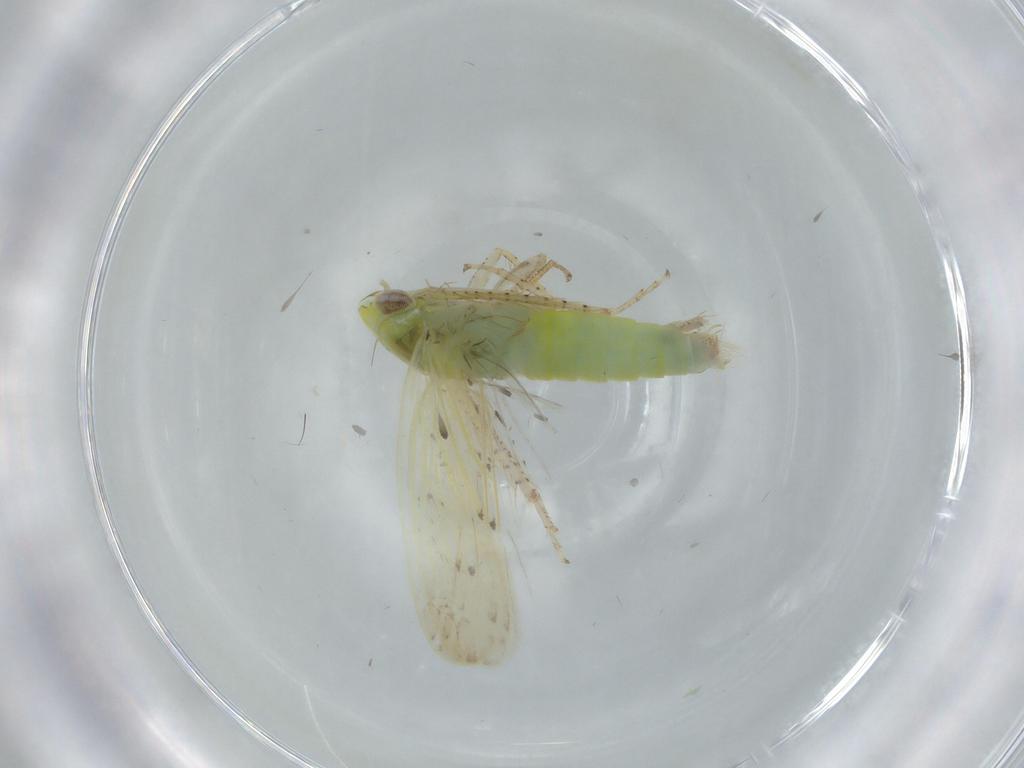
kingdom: Animalia
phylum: Arthropoda
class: Insecta
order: Hemiptera
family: Cicadellidae
